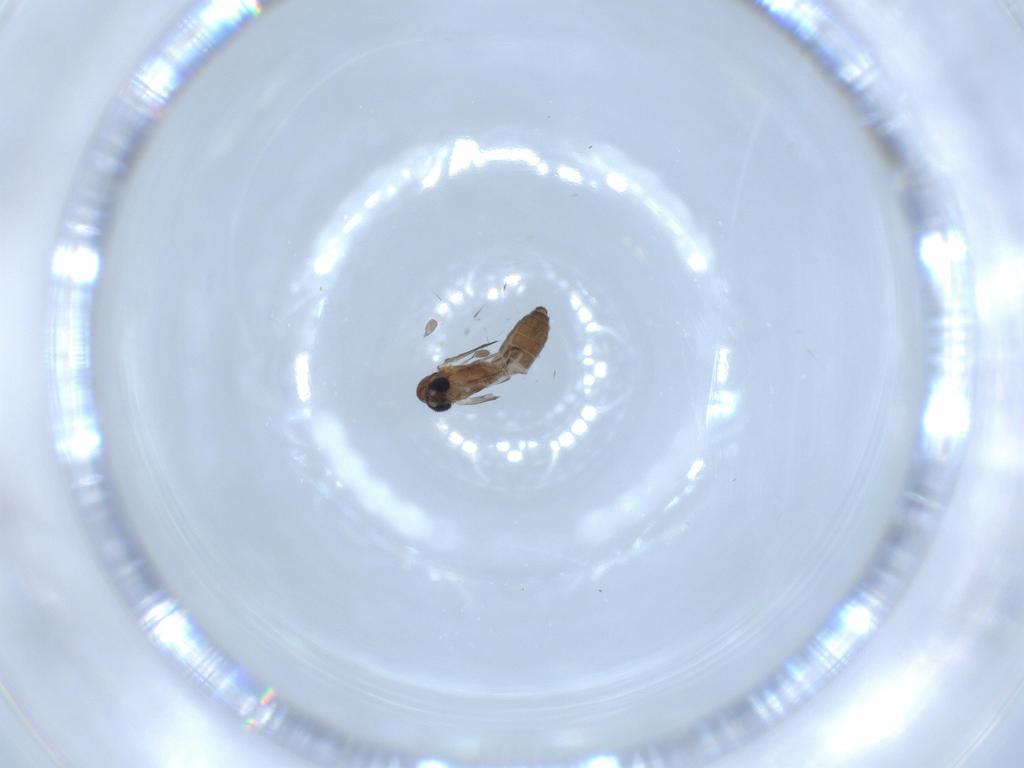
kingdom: Animalia
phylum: Arthropoda
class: Insecta
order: Diptera
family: Psychodidae
